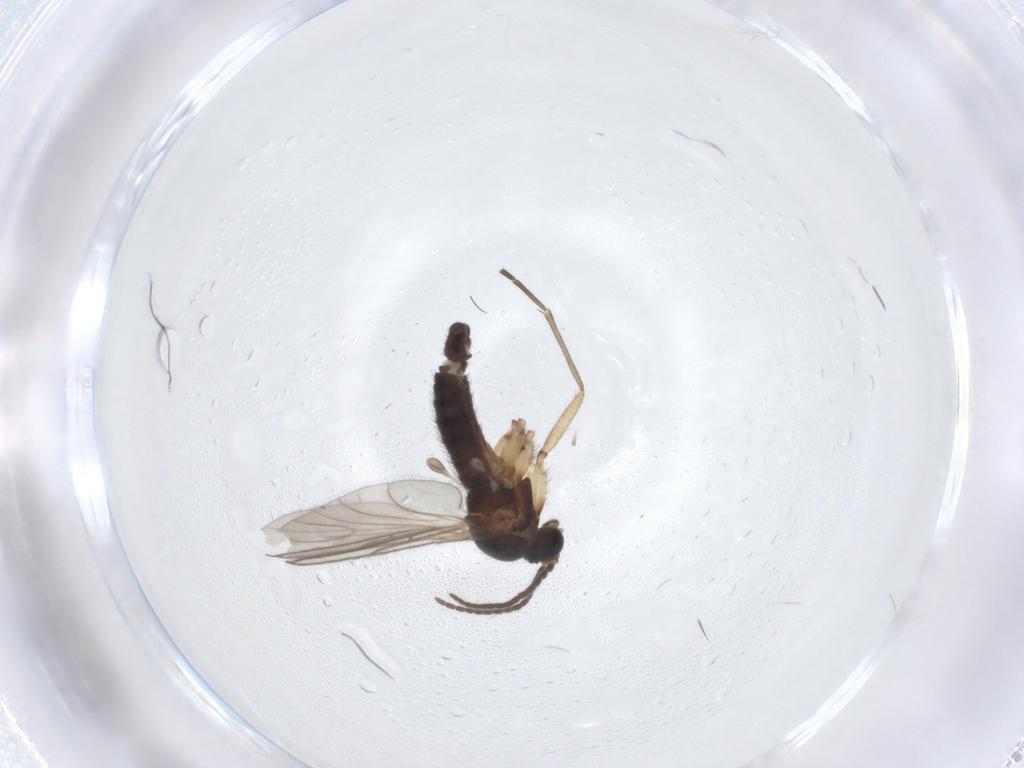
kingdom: Animalia
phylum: Arthropoda
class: Insecta
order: Diptera
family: Sciaridae
